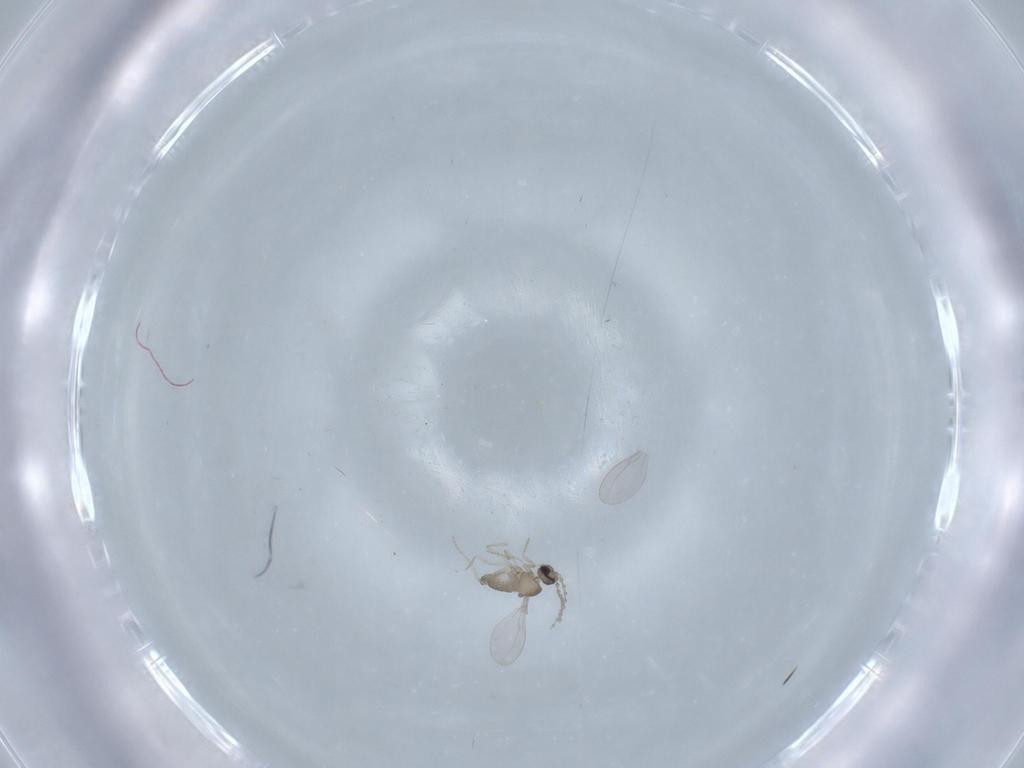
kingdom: Animalia
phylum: Arthropoda
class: Insecta
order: Diptera
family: Cecidomyiidae
